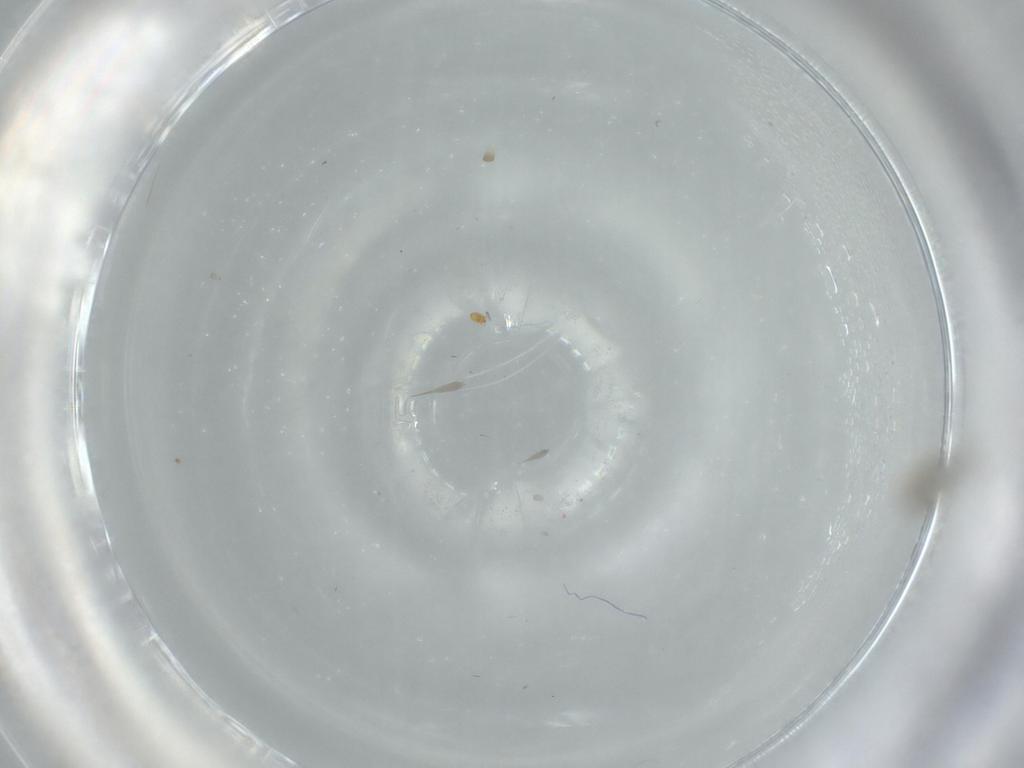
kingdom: Animalia
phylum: Arthropoda
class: Insecta
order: Diptera
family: Cecidomyiidae
